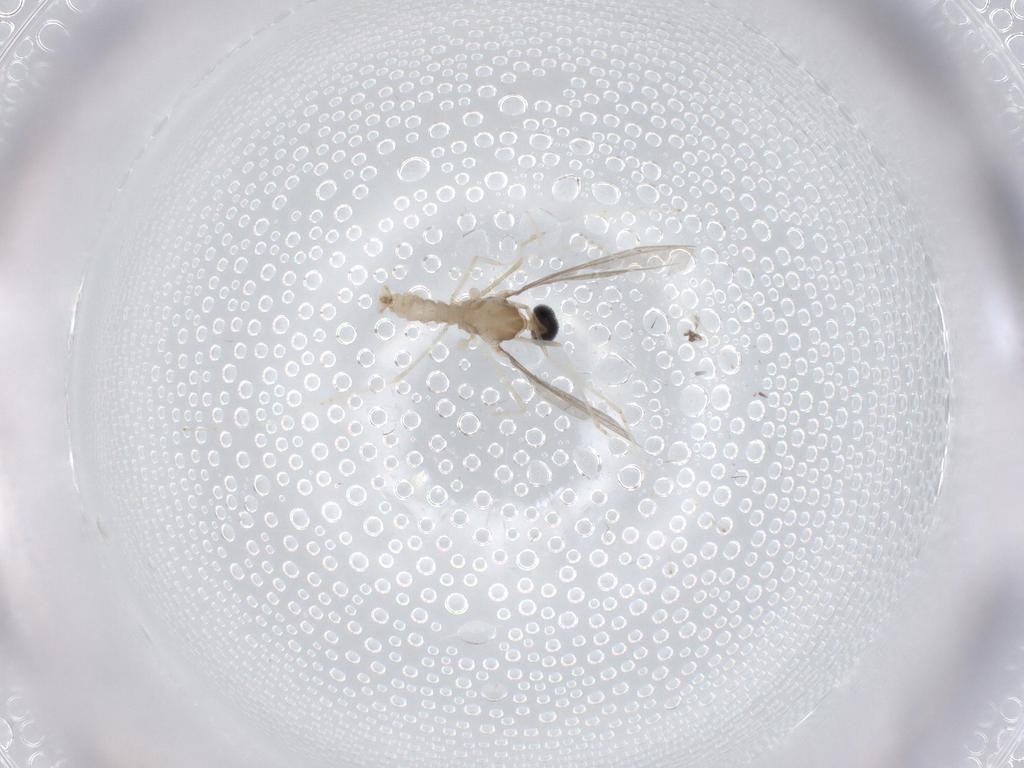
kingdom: Animalia
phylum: Arthropoda
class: Insecta
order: Diptera
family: Cecidomyiidae
